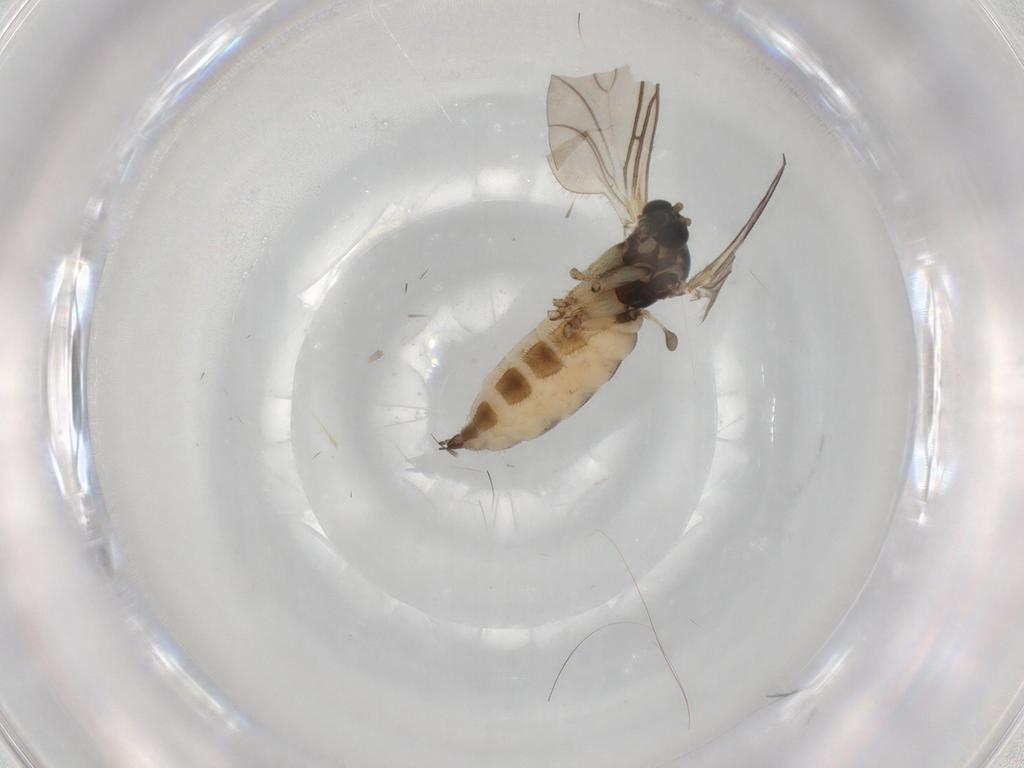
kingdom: Animalia
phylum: Arthropoda
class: Insecta
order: Diptera
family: Sciaridae
